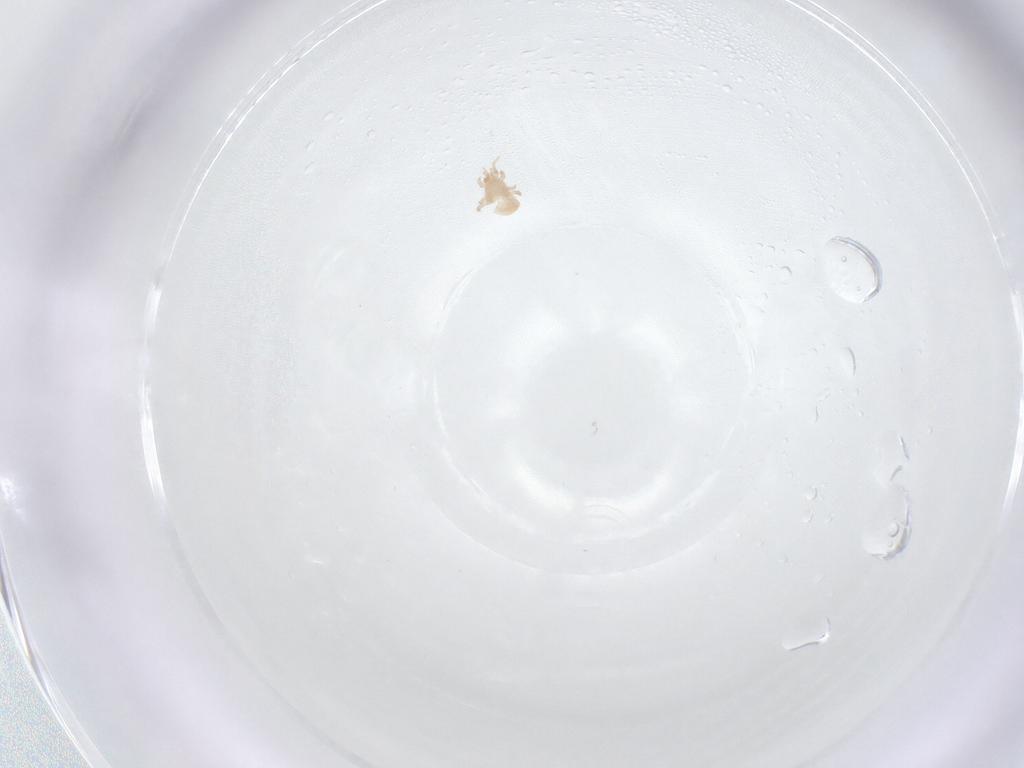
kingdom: Animalia
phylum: Arthropoda
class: Arachnida
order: Mesostigmata
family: Digamasellidae
